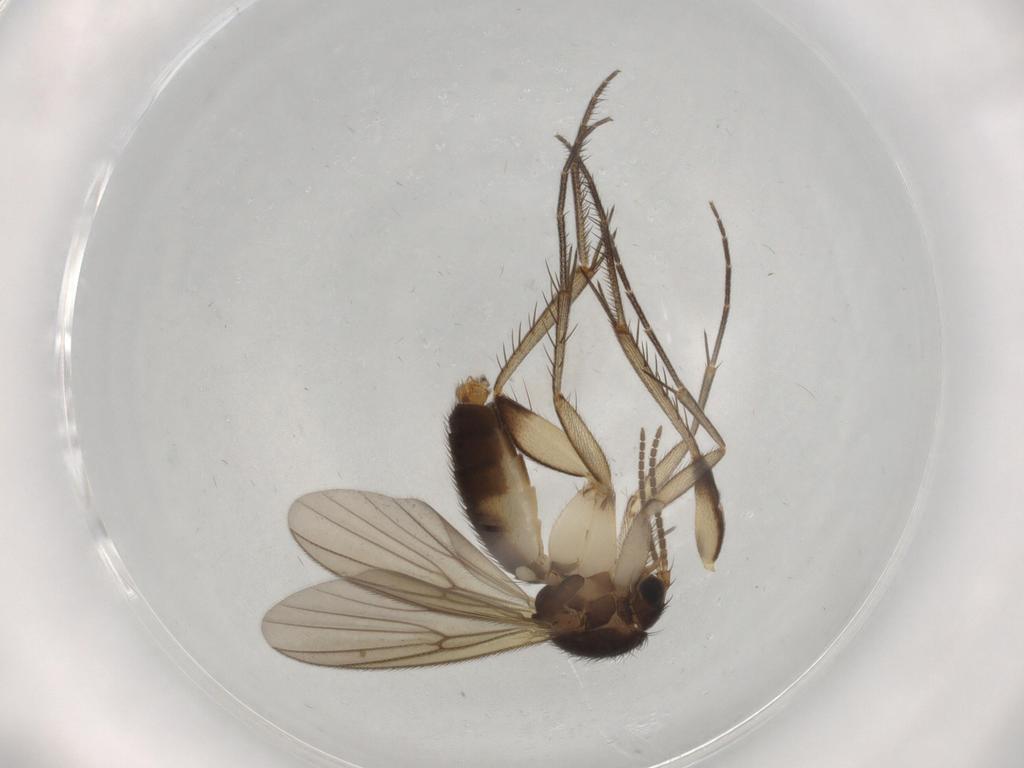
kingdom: Animalia
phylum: Arthropoda
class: Insecta
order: Diptera
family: Mycetophilidae
